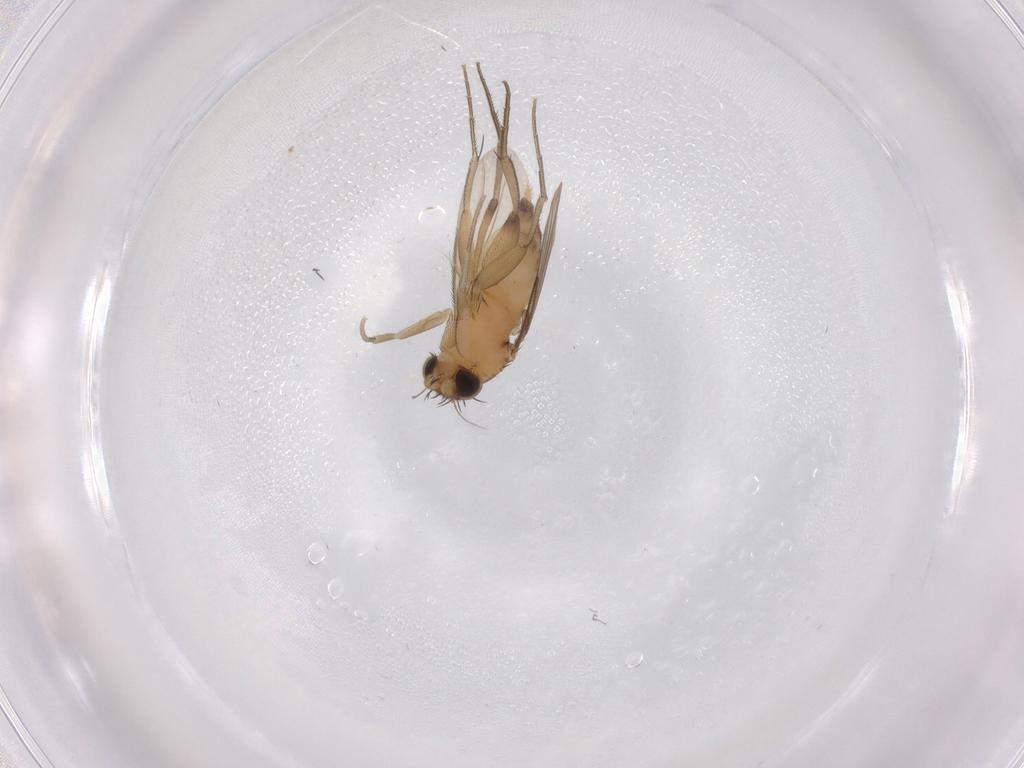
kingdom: Animalia
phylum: Arthropoda
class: Insecta
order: Diptera
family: Phoridae
